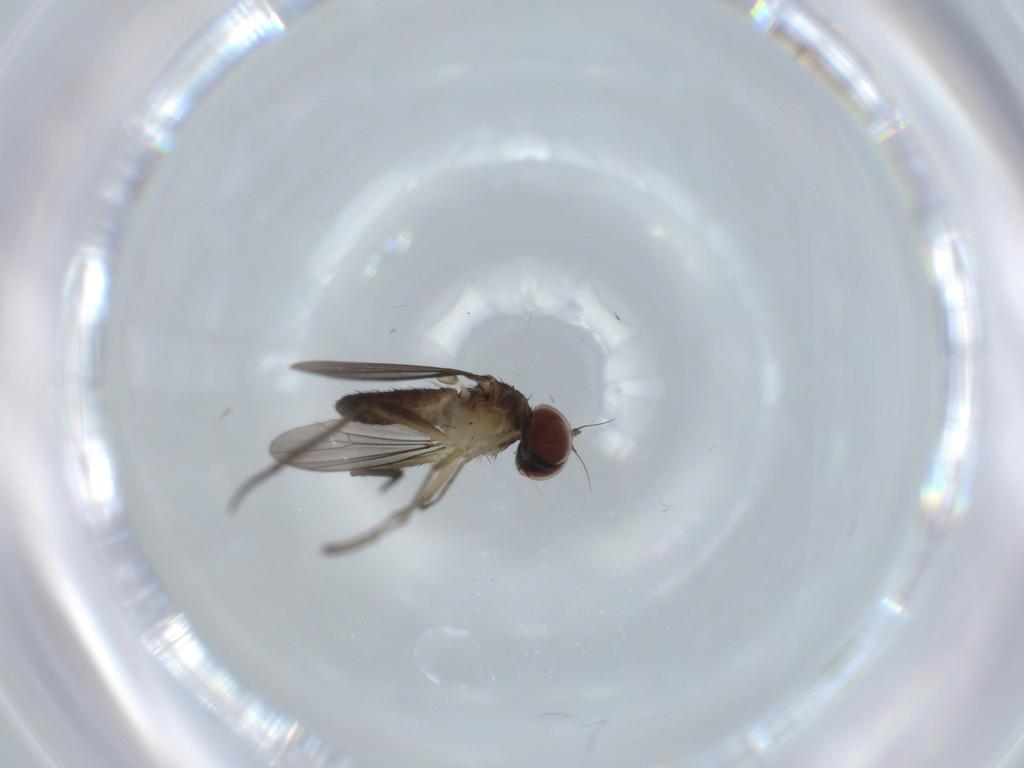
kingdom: Animalia
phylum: Arthropoda
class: Insecta
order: Diptera
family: Dolichopodidae
